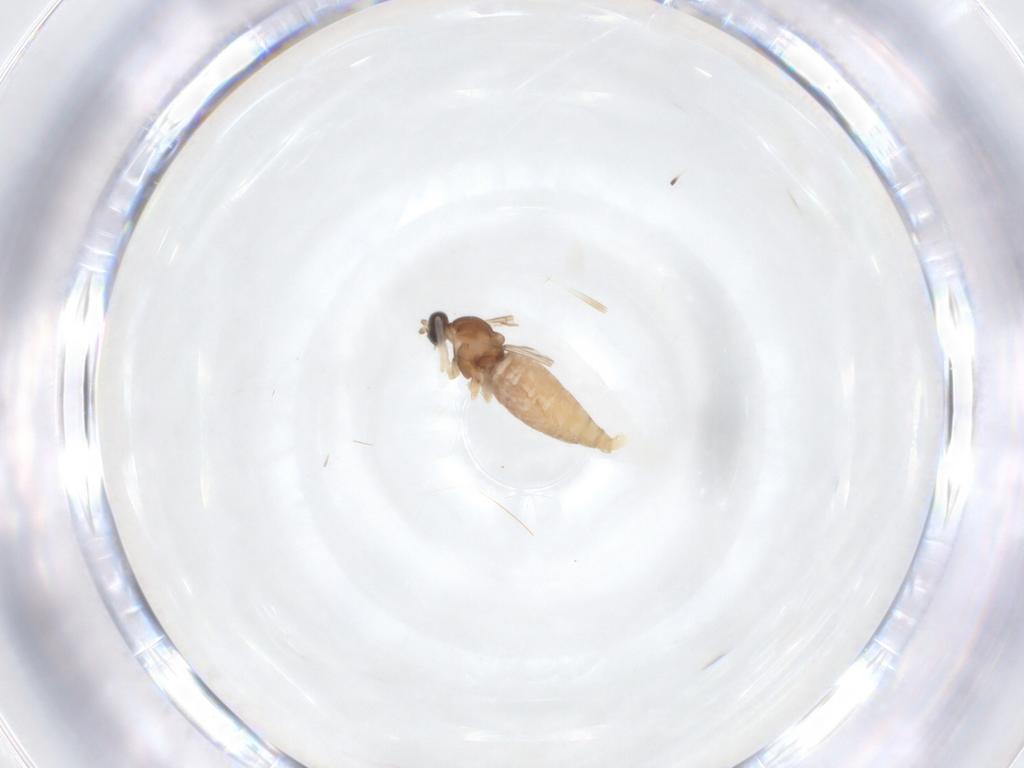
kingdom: Animalia
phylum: Arthropoda
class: Insecta
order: Diptera
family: Cecidomyiidae
